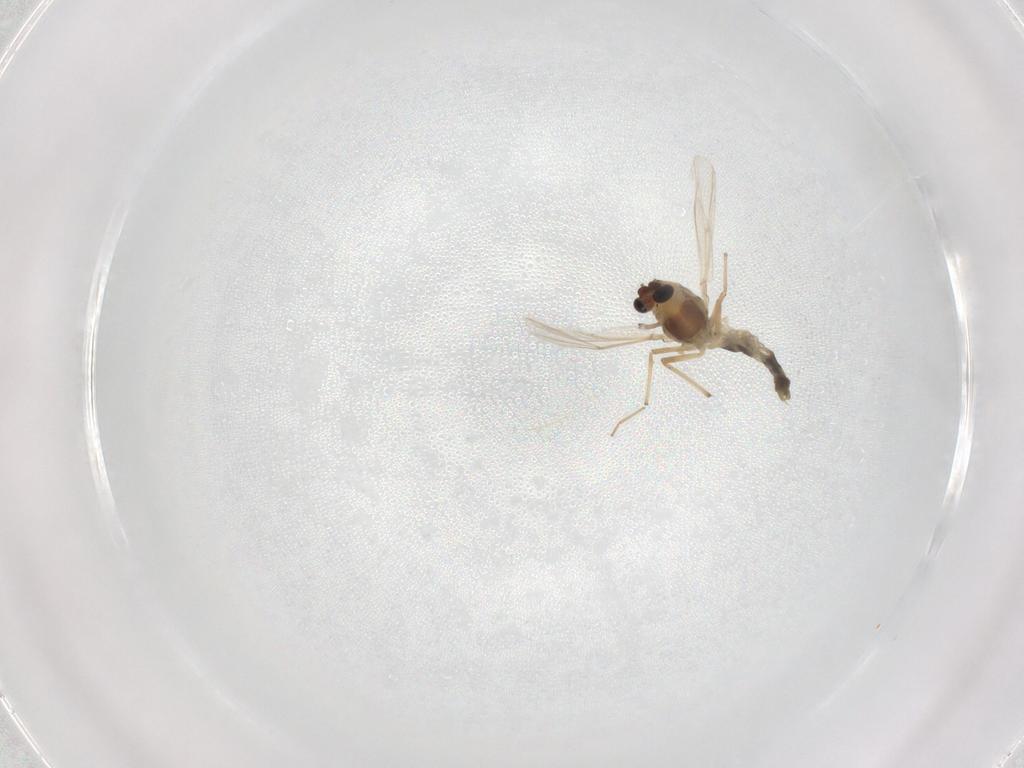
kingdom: Animalia
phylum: Arthropoda
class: Insecta
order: Diptera
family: Chironomidae
